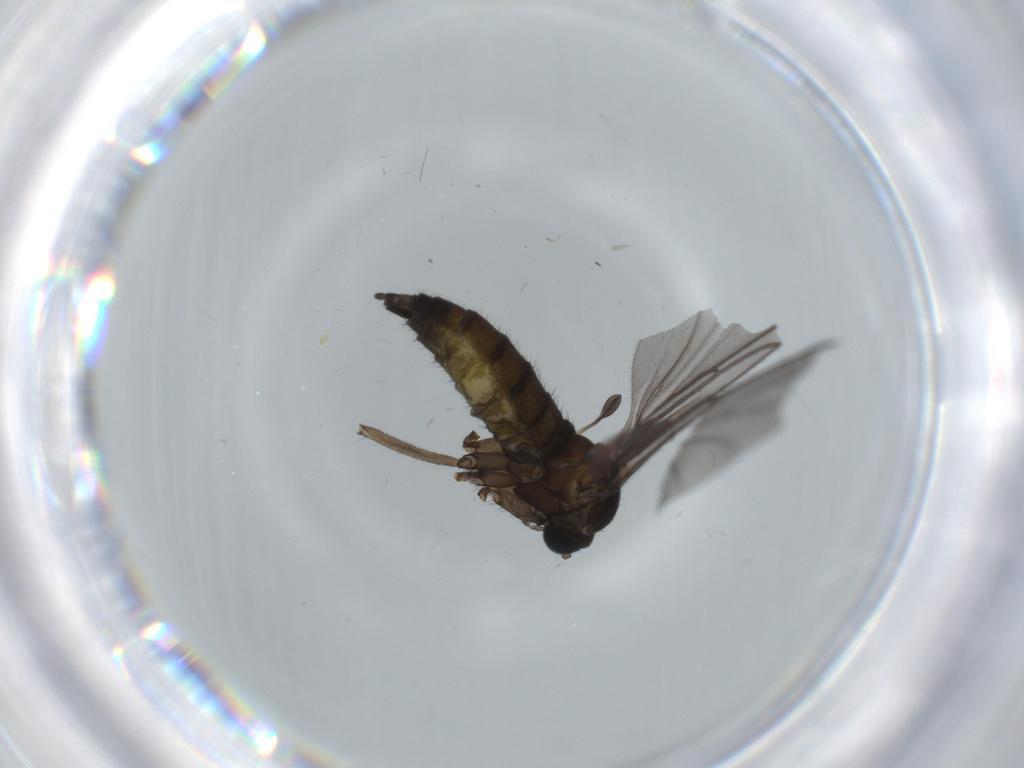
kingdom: Animalia
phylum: Arthropoda
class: Insecta
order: Diptera
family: Sciaridae
